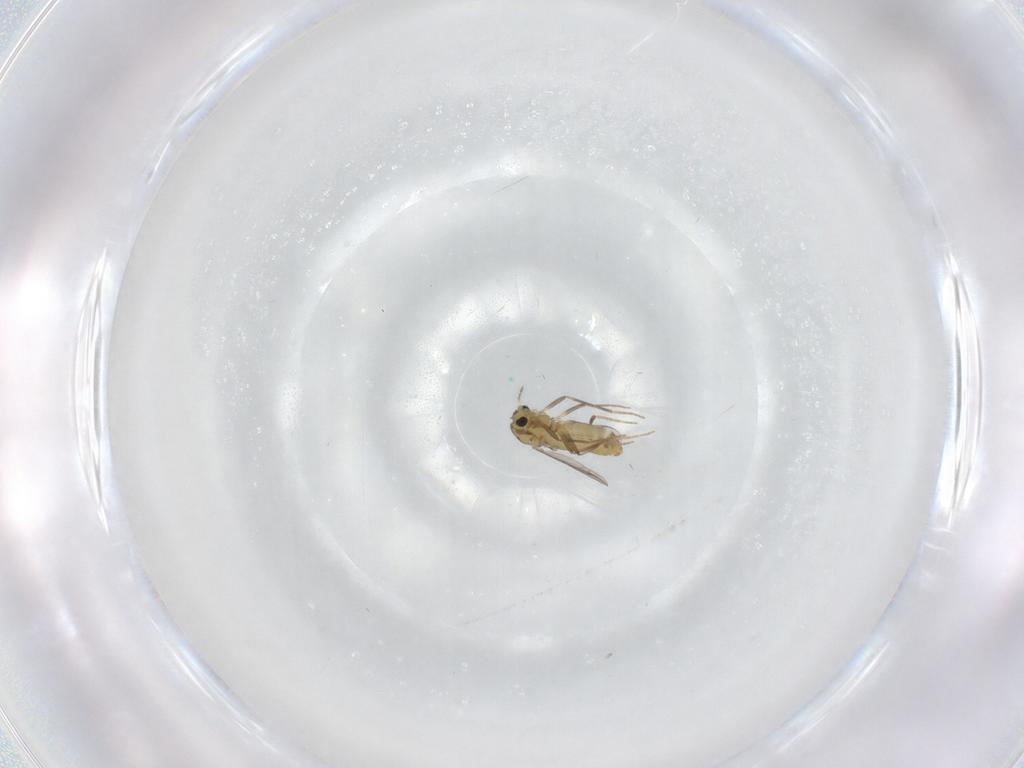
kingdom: Animalia
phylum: Arthropoda
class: Insecta
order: Diptera
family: Chironomidae
